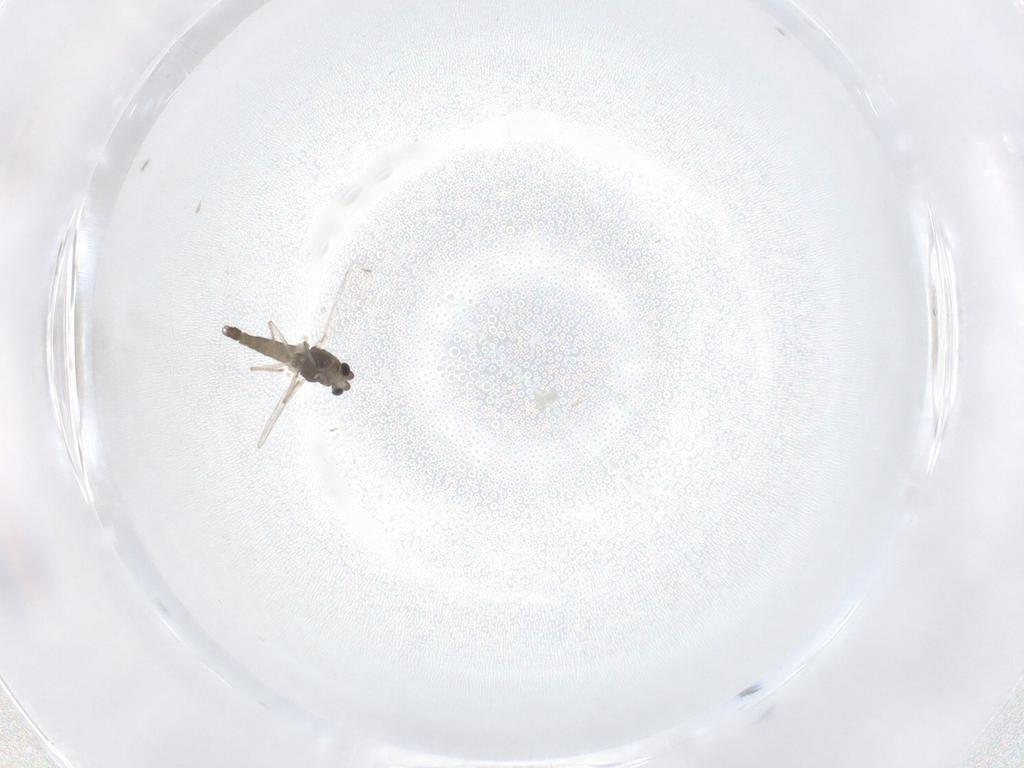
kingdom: Animalia
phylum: Arthropoda
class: Insecta
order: Diptera
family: Chironomidae
